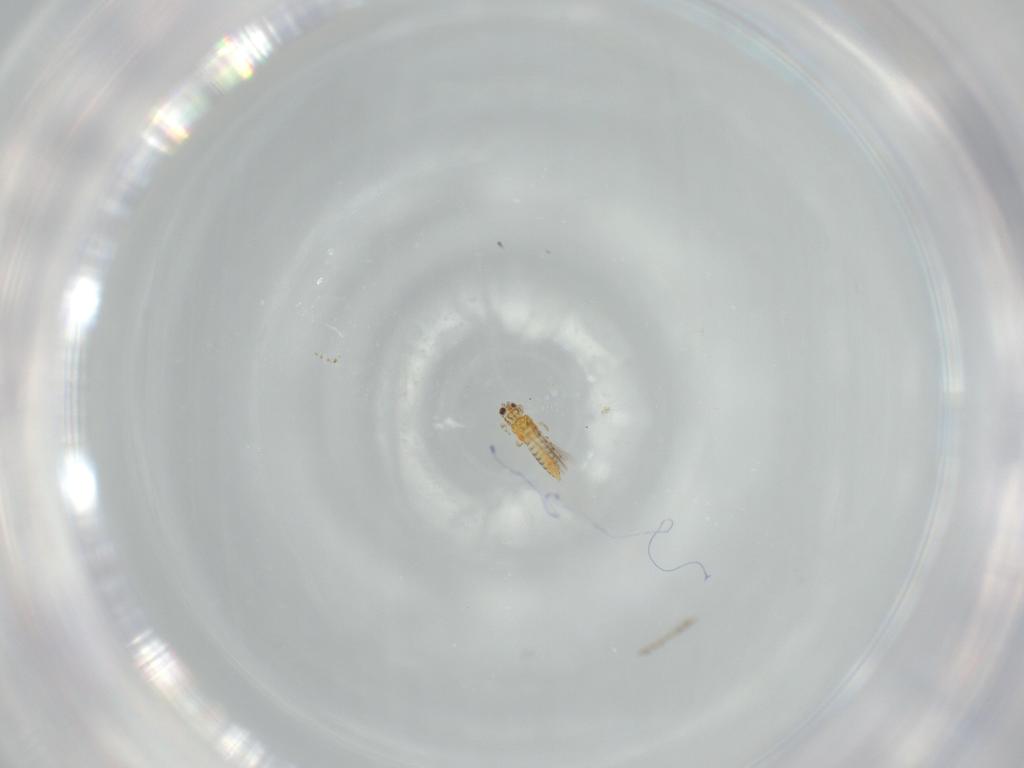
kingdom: Animalia
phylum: Arthropoda
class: Insecta
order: Thysanoptera
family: Thripidae
